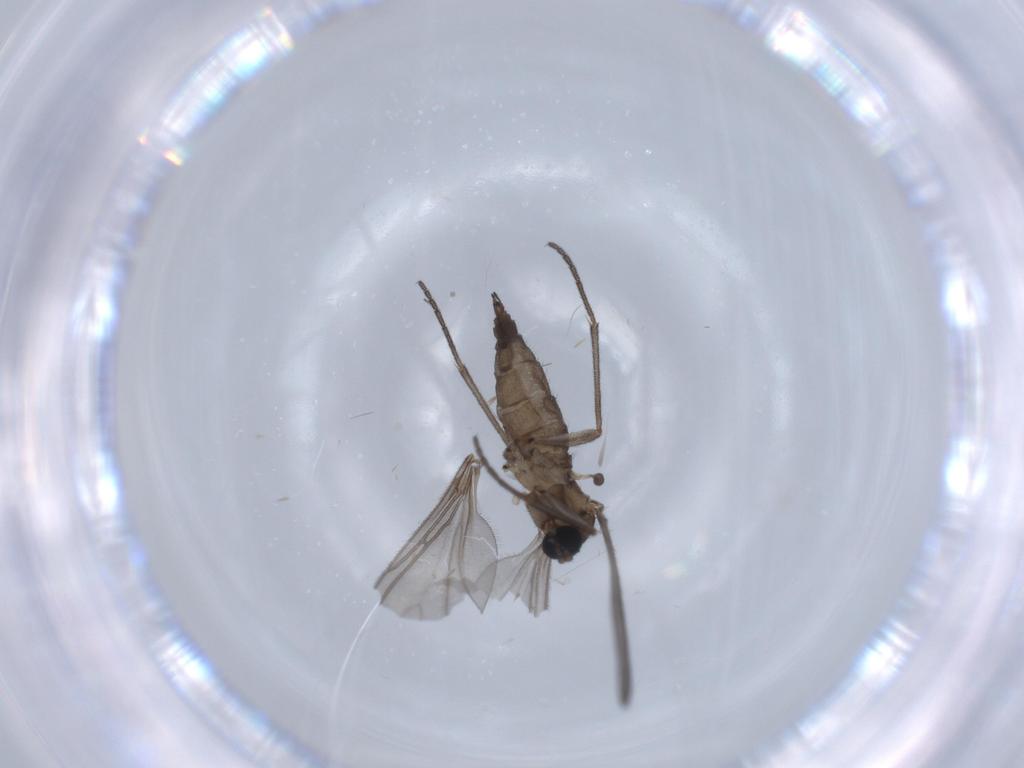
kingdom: Animalia
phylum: Arthropoda
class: Insecta
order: Diptera
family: Sciaridae
